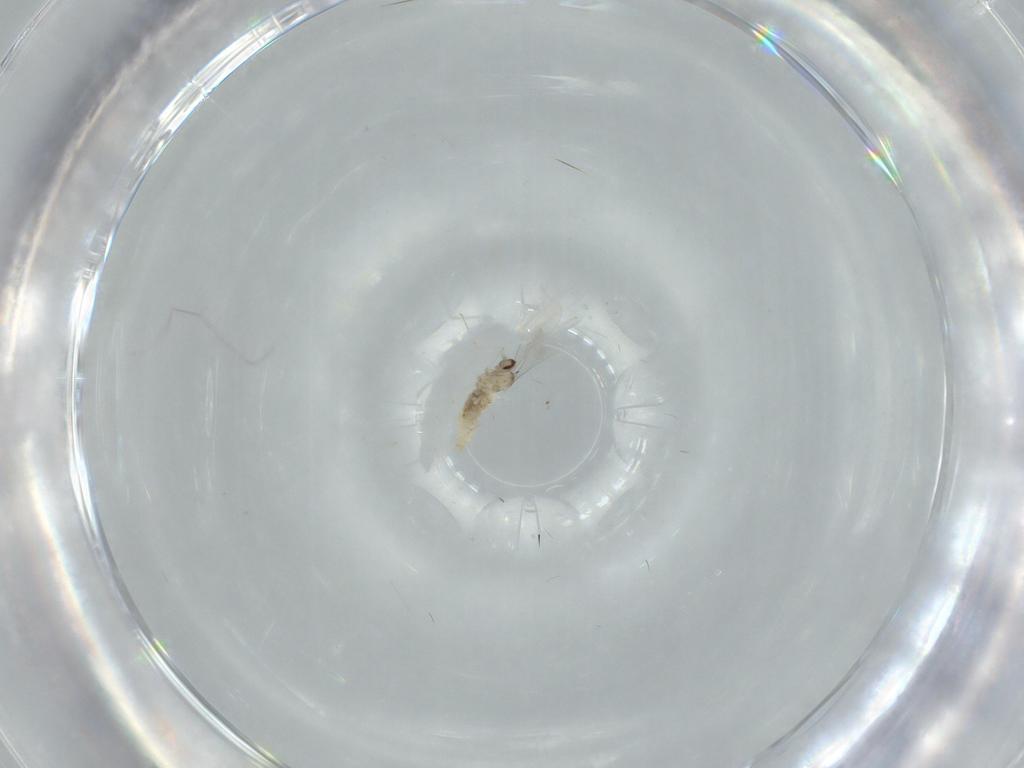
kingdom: Animalia
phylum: Arthropoda
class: Insecta
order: Diptera
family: Cecidomyiidae
